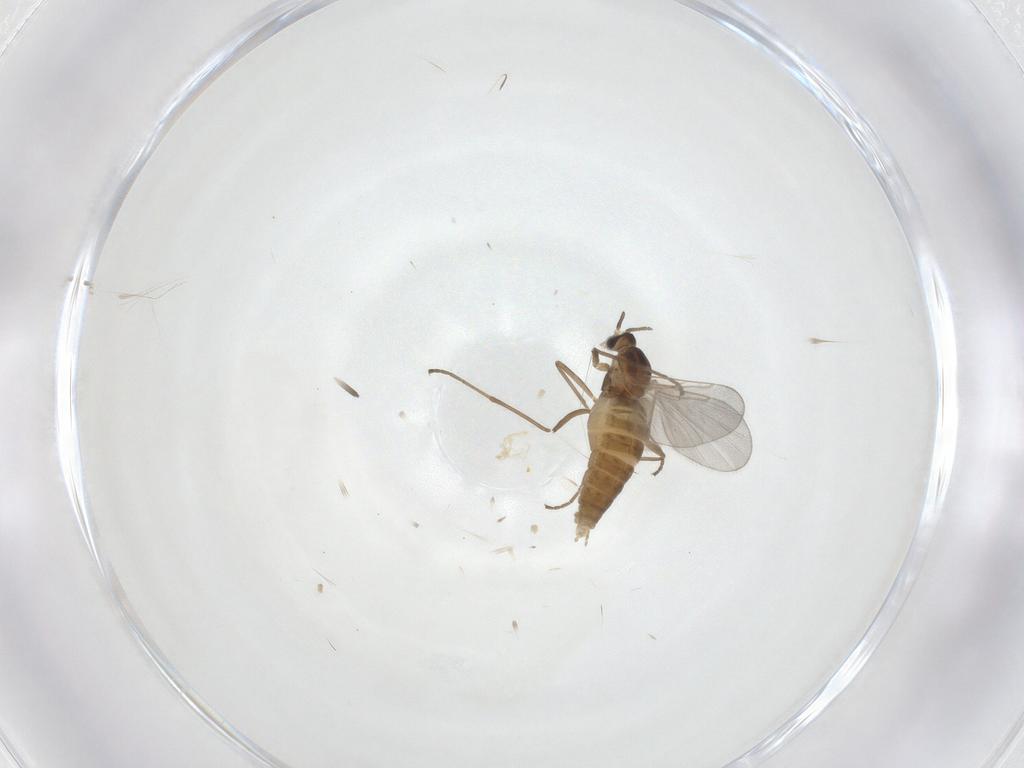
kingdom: Animalia
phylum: Arthropoda
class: Insecta
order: Diptera
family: Cecidomyiidae
